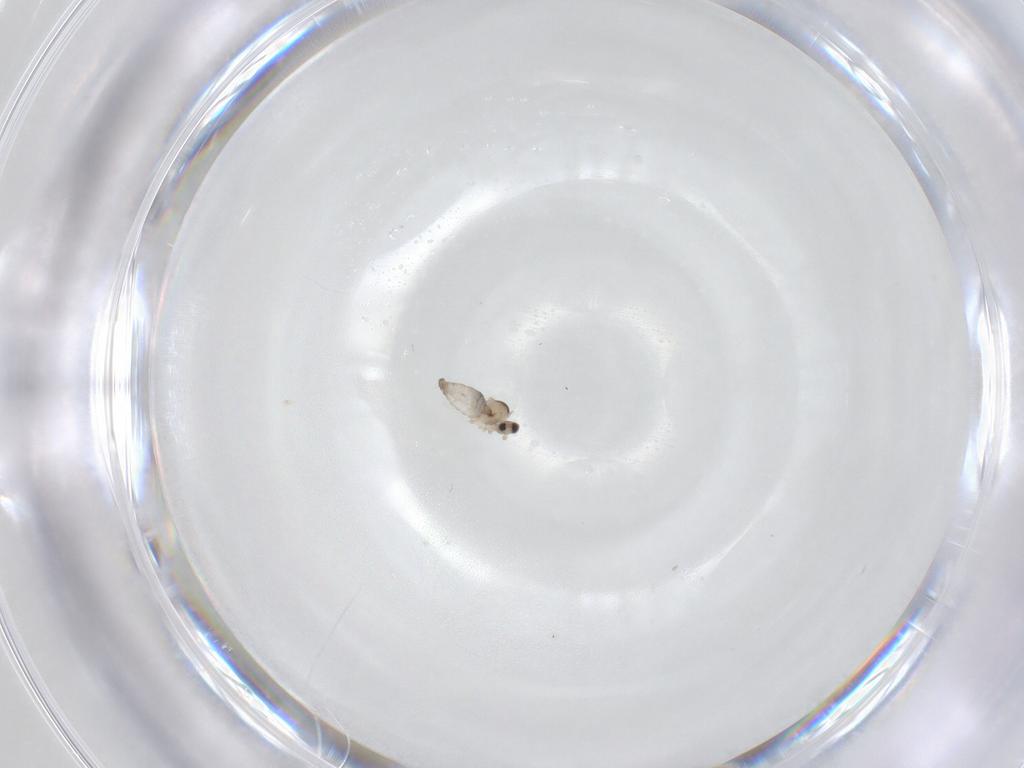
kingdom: Animalia
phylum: Arthropoda
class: Insecta
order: Diptera
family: Cecidomyiidae
